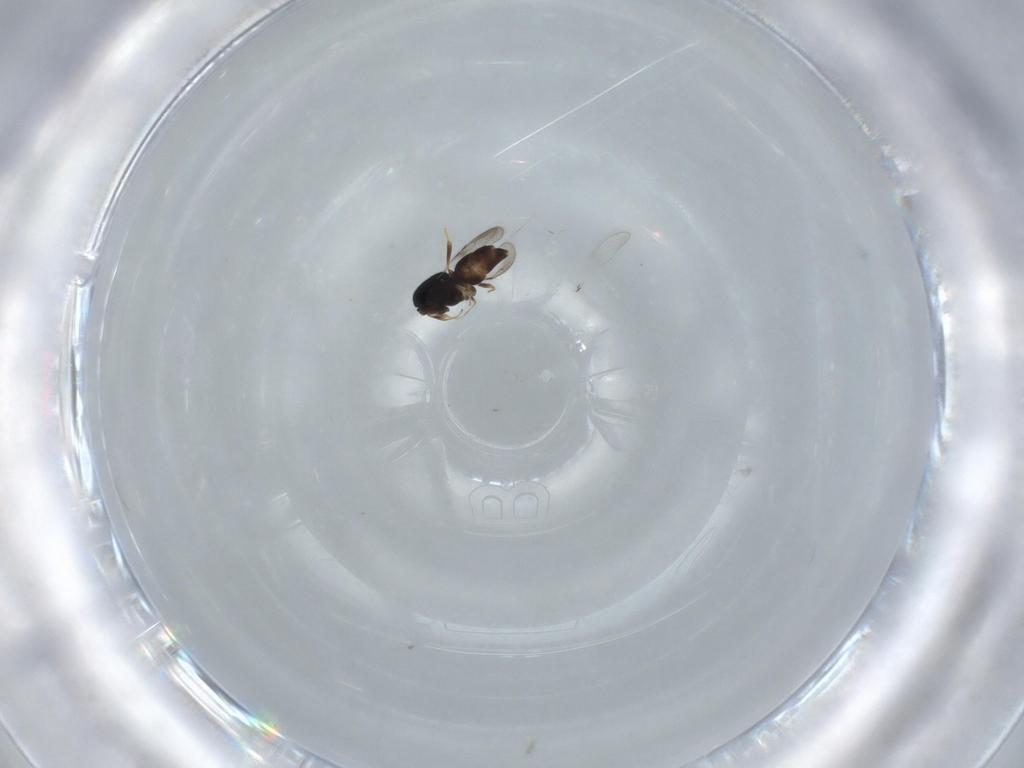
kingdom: Animalia
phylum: Arthropoda
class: Insecta
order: Hymenoptera
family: Ceraphronidae
